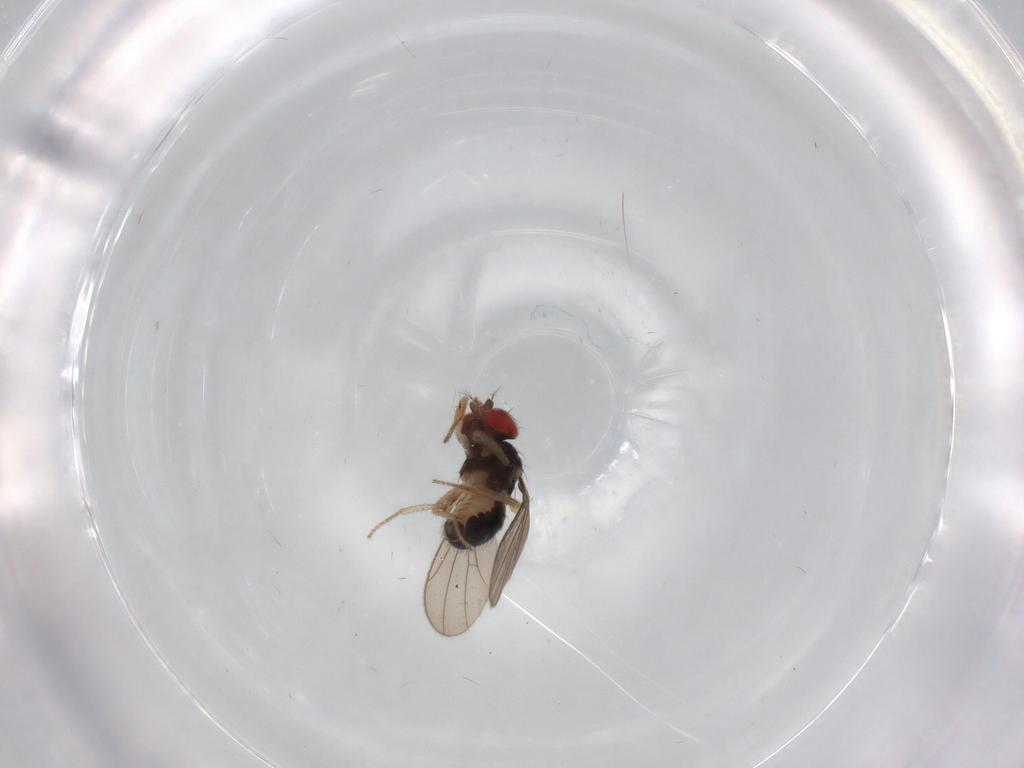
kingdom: Animalia
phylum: Arthropoda
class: Insecta
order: Diptera
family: Drosophilidae
